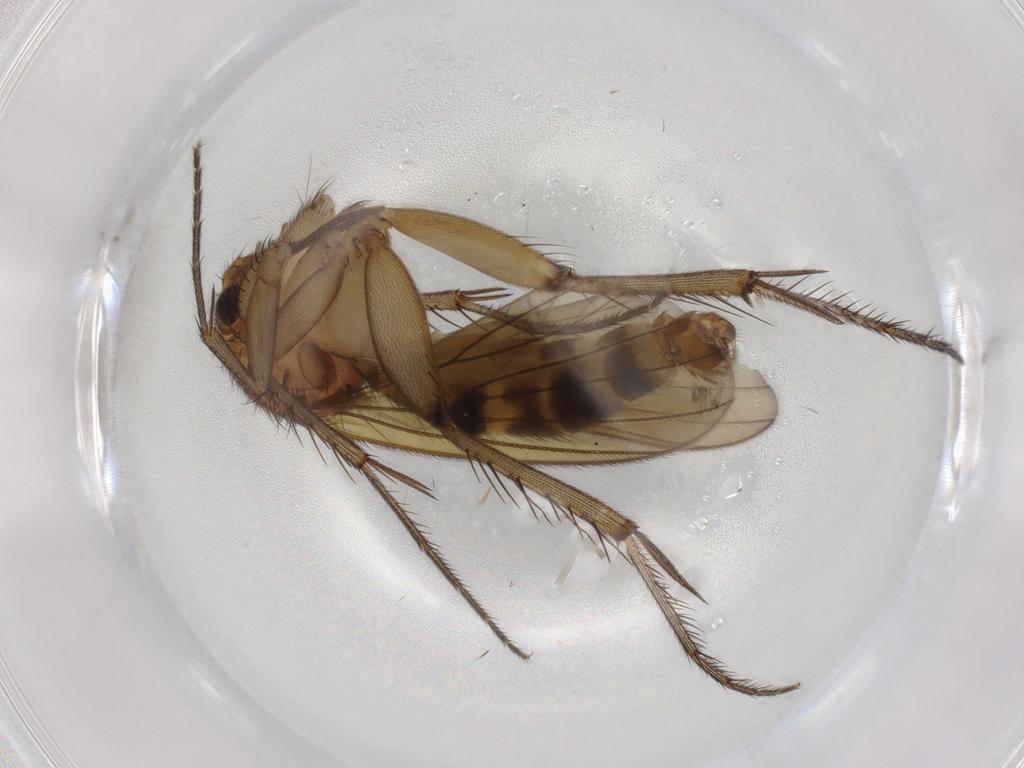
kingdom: Animalia
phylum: Arthropoda
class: Insecta
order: Diptera
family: Mycetophilidae
